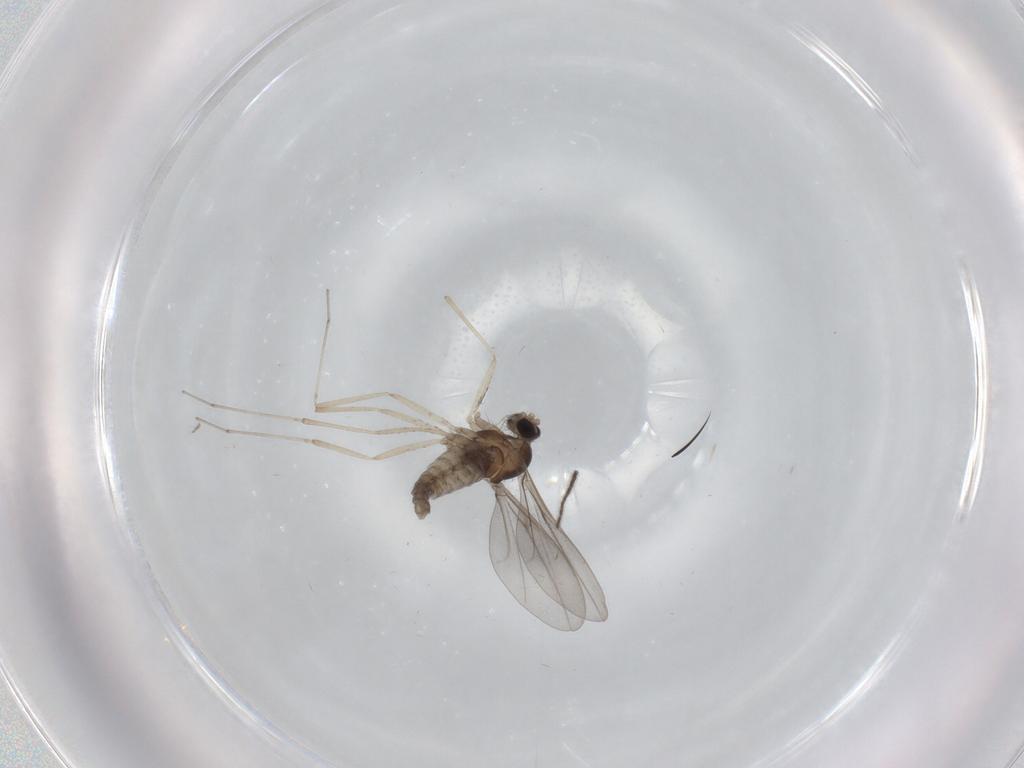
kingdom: Animalia
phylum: Arthropoda
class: Insecta
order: Diptera
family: Cecidomyiidae
